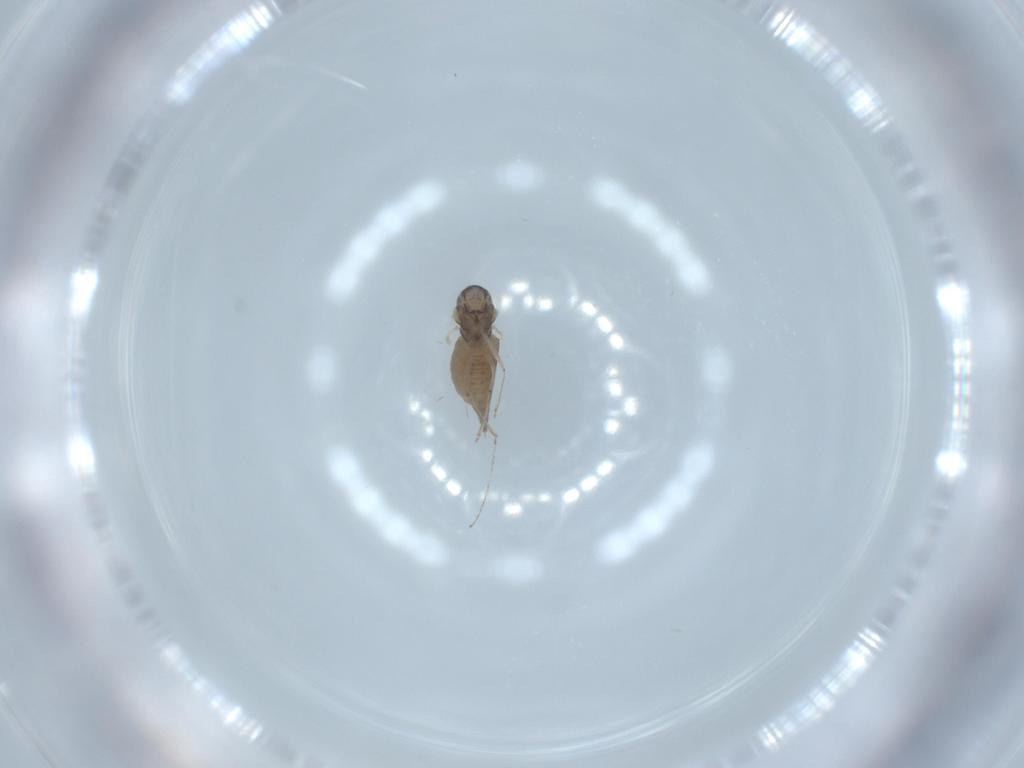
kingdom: Animalia
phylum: Arthropoda
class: Insecta
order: Diptera
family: Cecidomyiidae
